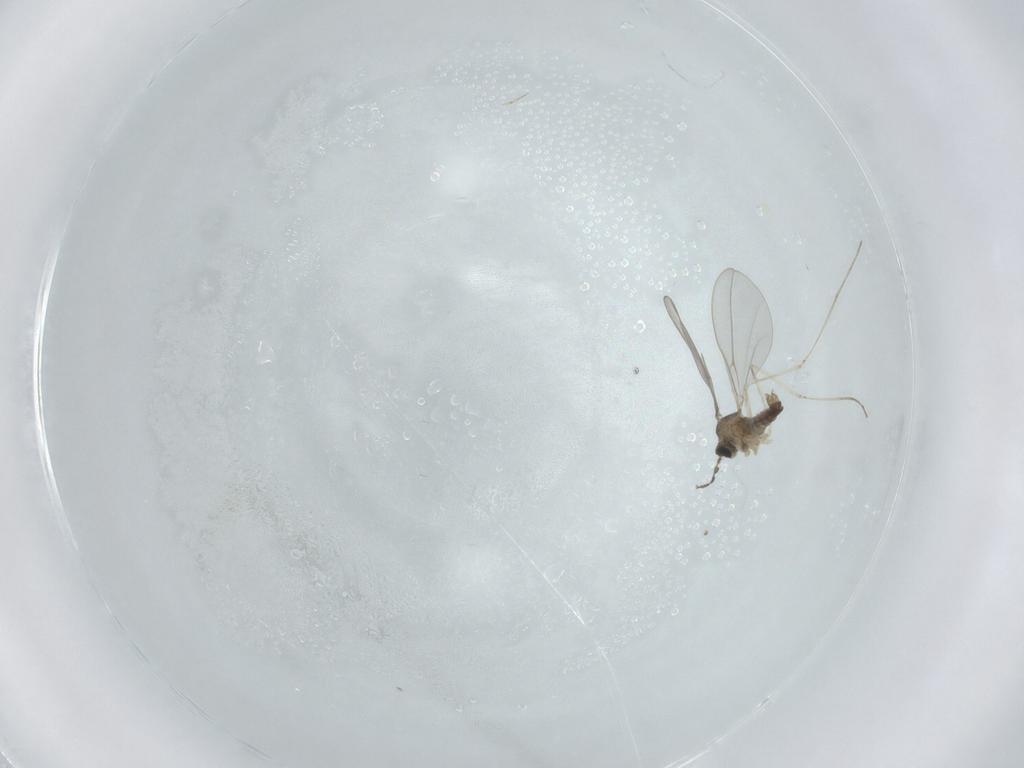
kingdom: Animalia
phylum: Arthropoda
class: Insecta
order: Diptera
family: Cecidomyiidae
